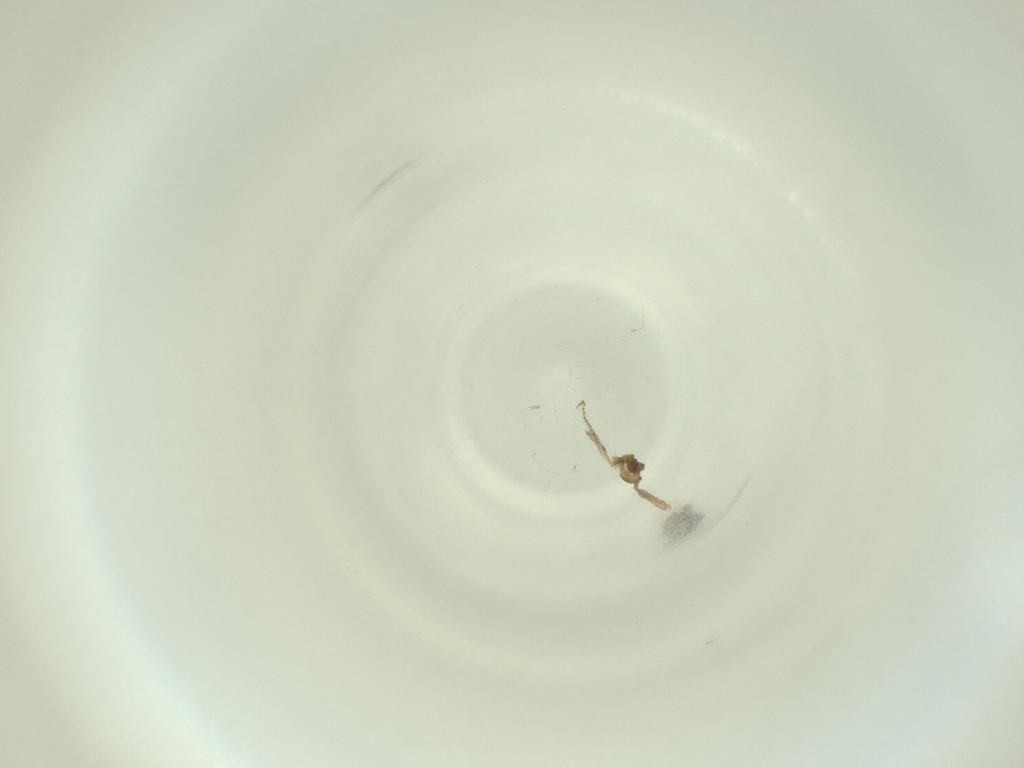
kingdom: Animalia
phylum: Arthropoda
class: Insecta
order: Diptera
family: Cecidomyiidae
